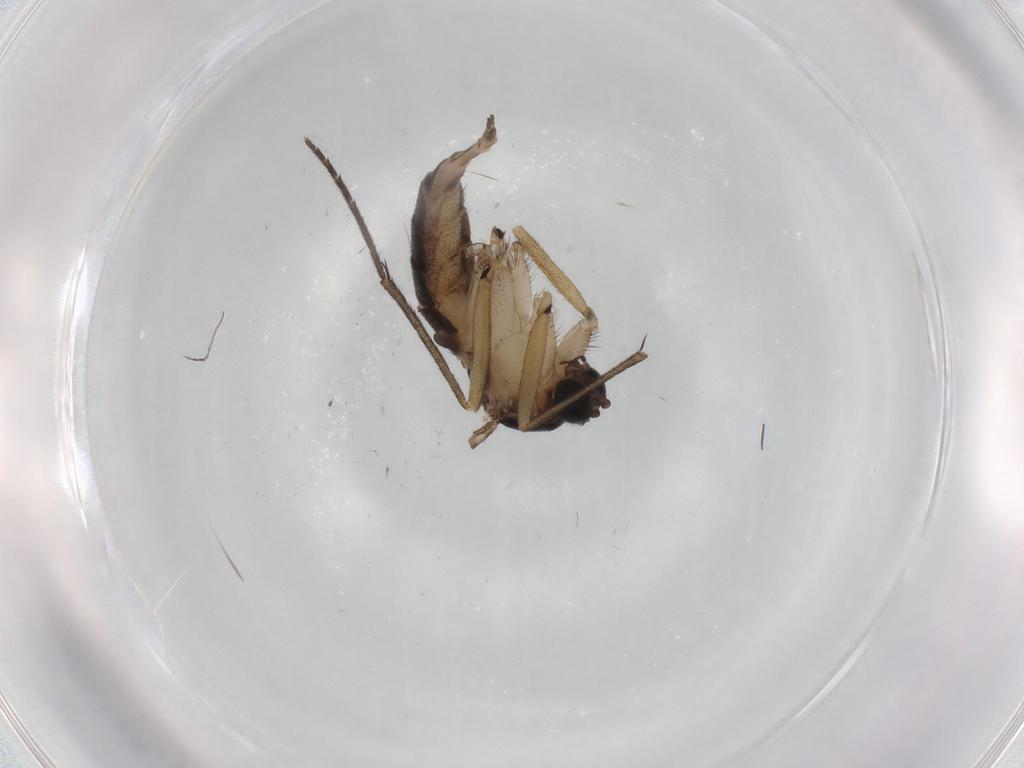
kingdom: Animalia
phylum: Arthropoda
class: Insecta
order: Diptera
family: Sciaridae
